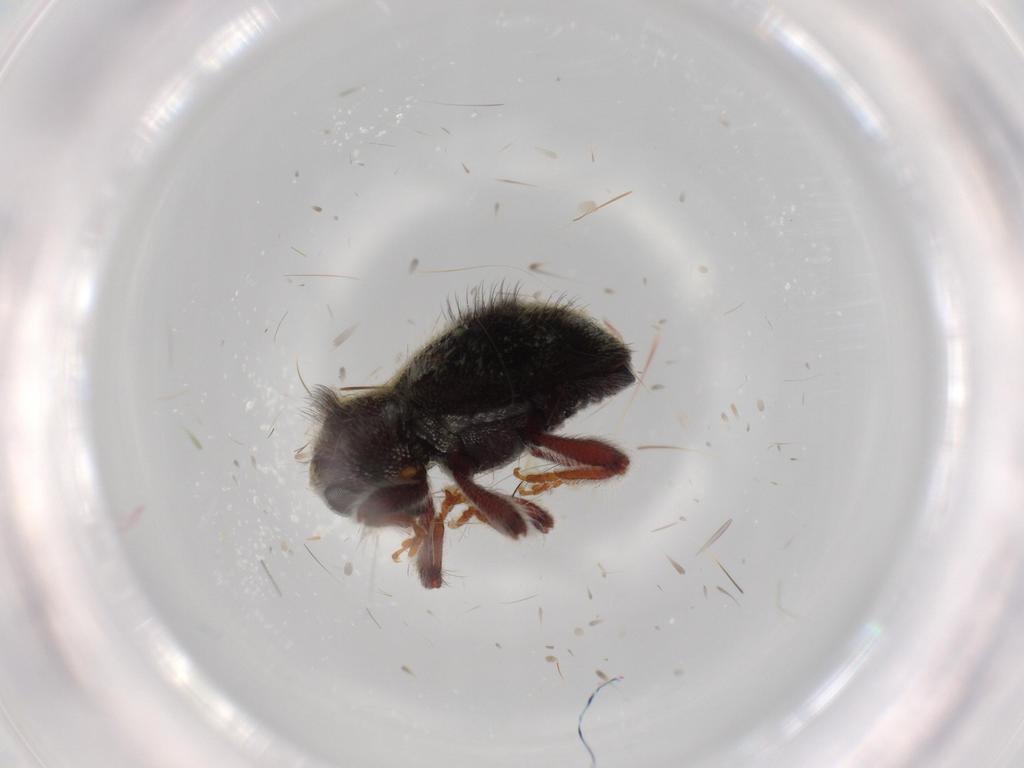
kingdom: Animalia
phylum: Arthropoda
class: Insecta
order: Coleoptera
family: Curculionidae
